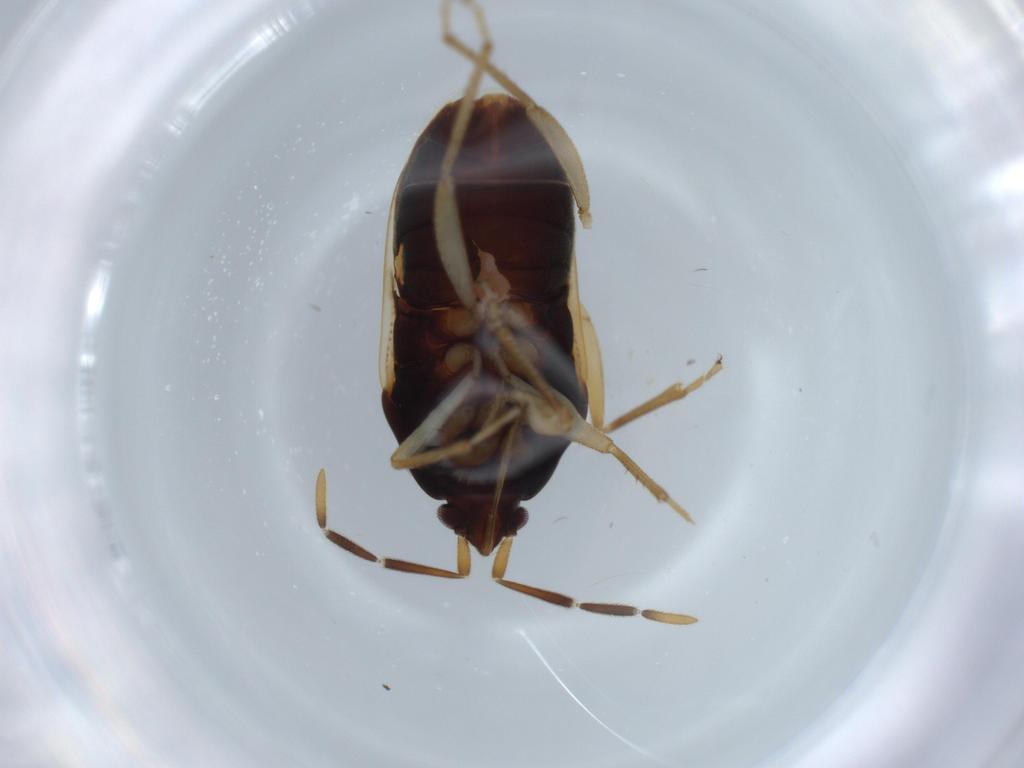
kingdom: Animalia
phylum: Arthropoda
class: Insecta
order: Hemiptera
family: Rhyparochromidae
